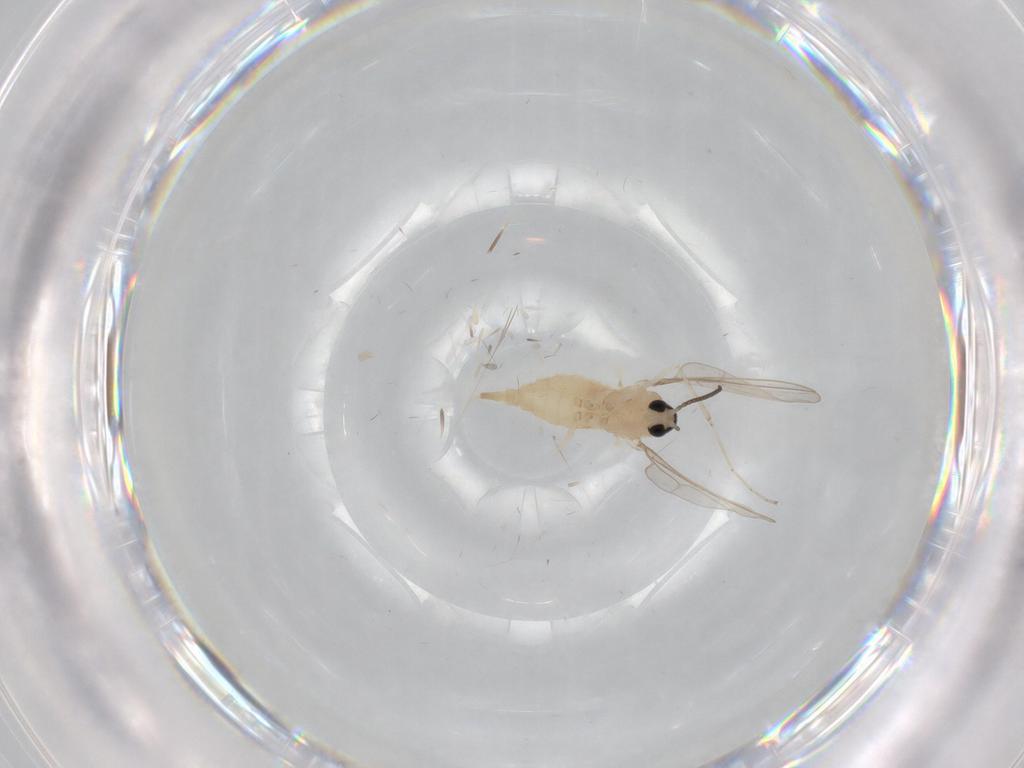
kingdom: Animalia
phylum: Arthropoda
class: Insecta
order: Diptera
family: Cecidomyiidae
